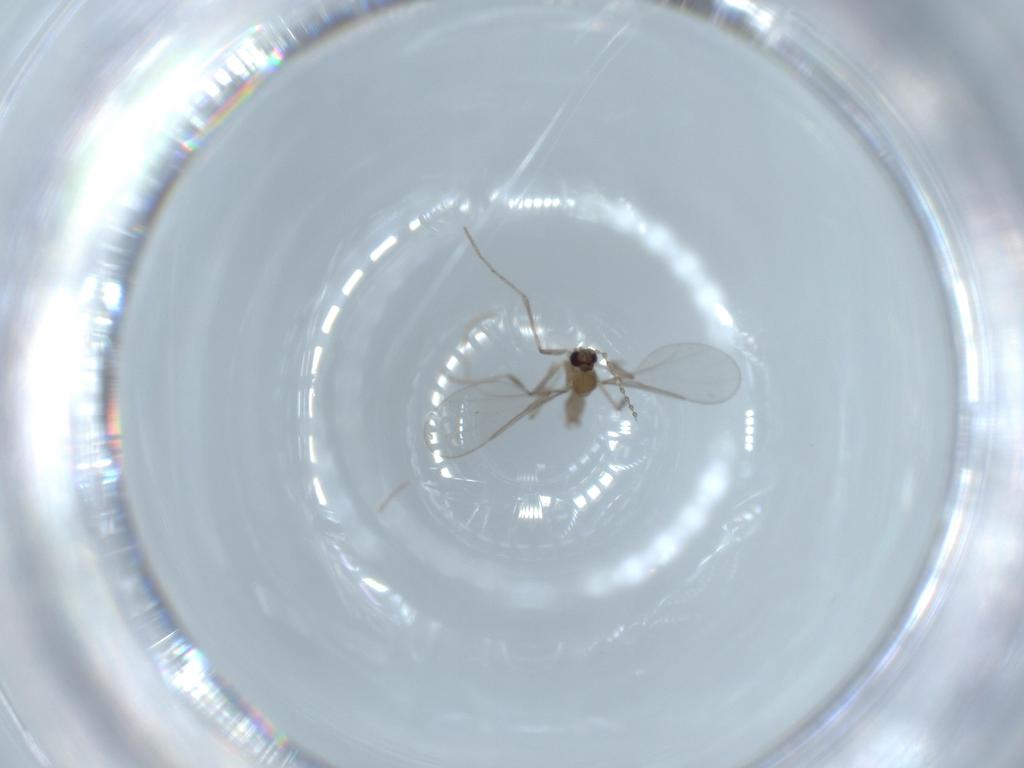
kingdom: Animalia
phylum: Arthropoda
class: Insecta
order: Diptera
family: Cecidomyiidae
